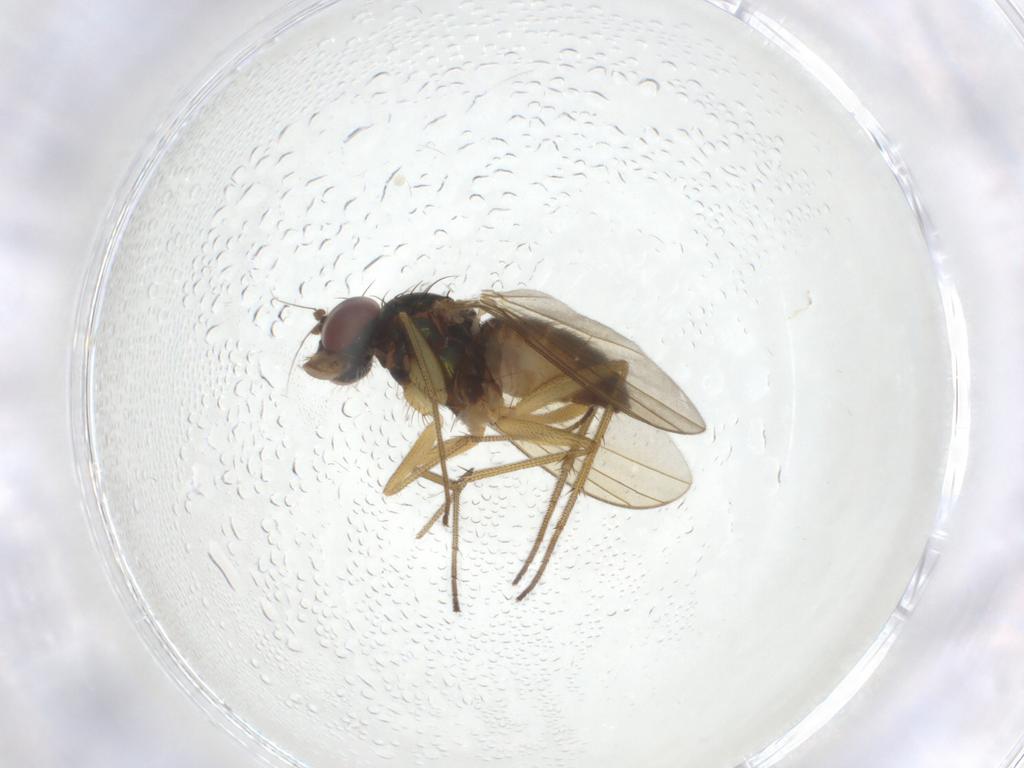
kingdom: Animalia
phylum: Arthropoda
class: Insecta
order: Diptera
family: Dolichopodidae
